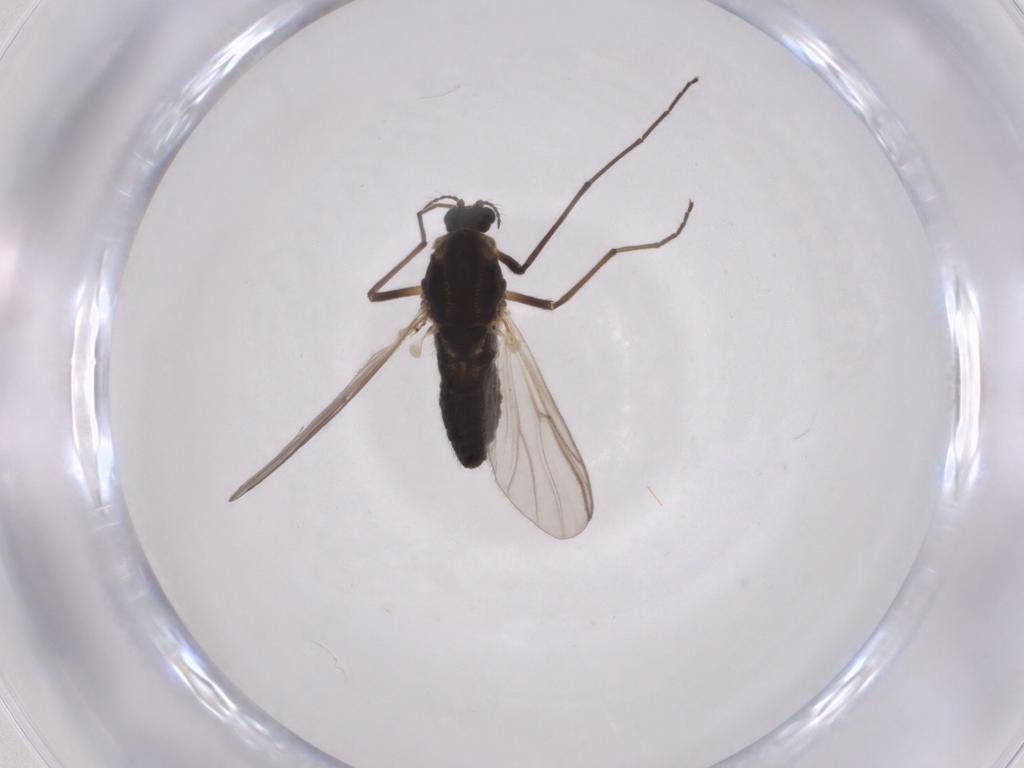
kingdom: Animalia
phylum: Arthropoda
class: Insecta
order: Diptera
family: Chironomidae
